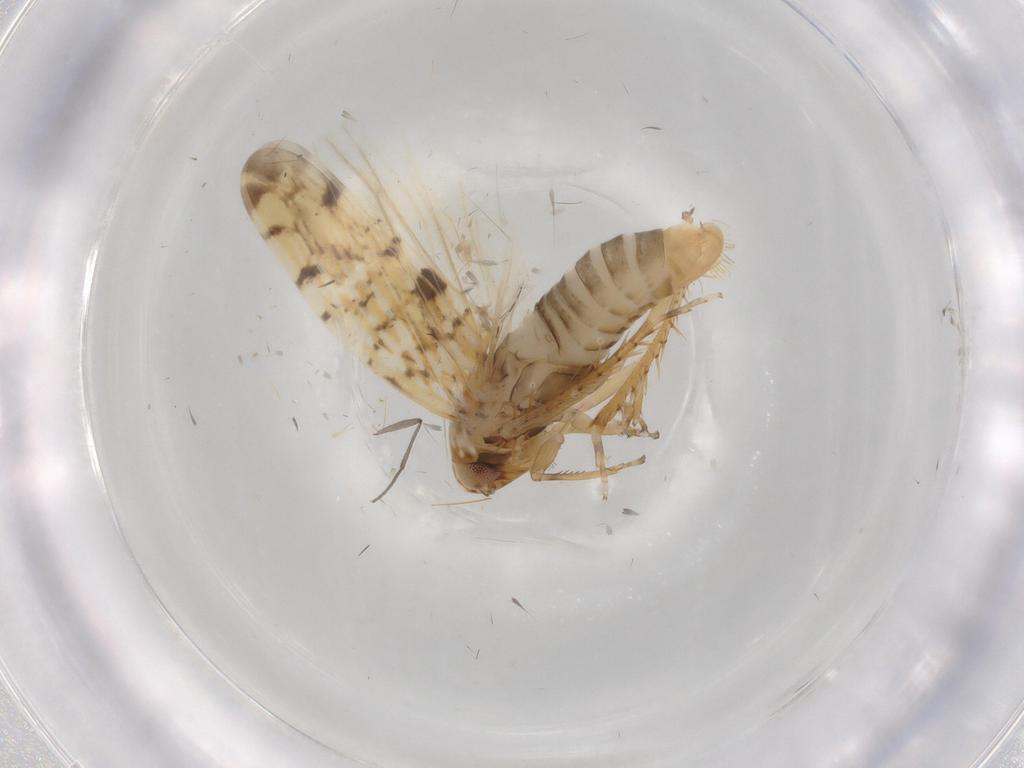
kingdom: Animalia
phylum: Arthropoda
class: Insecta
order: Hemiptera
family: Cicadellidae
